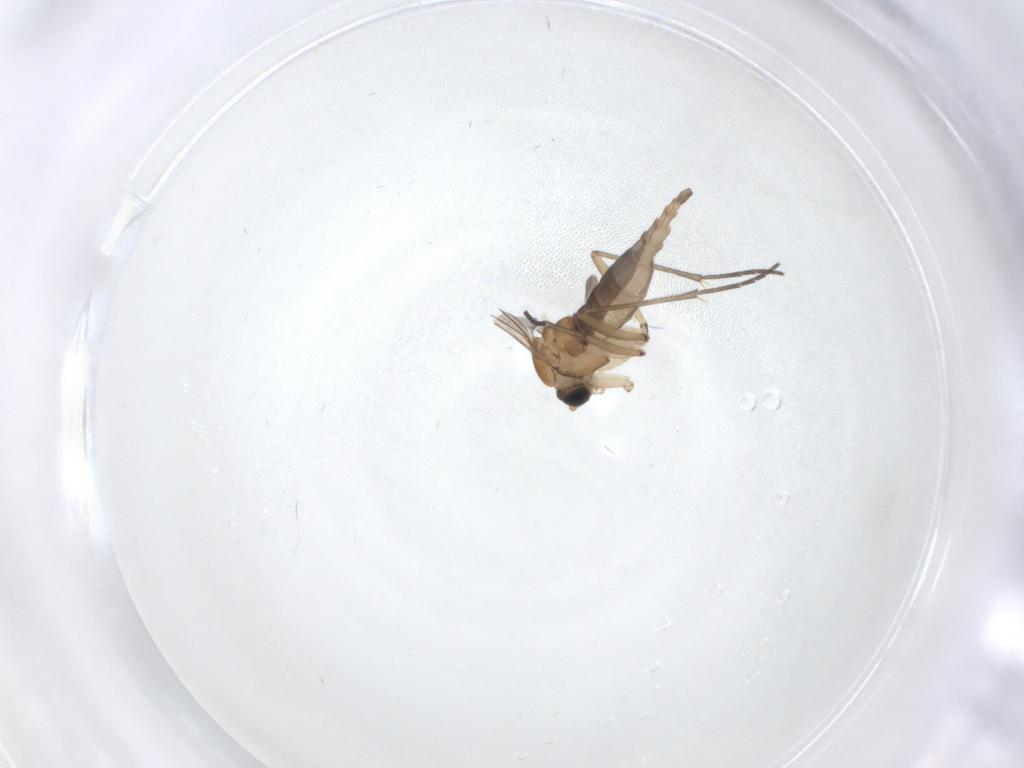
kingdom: Animalia
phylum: Arthropoda
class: Insecta
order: Diptera
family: Sciaridae
